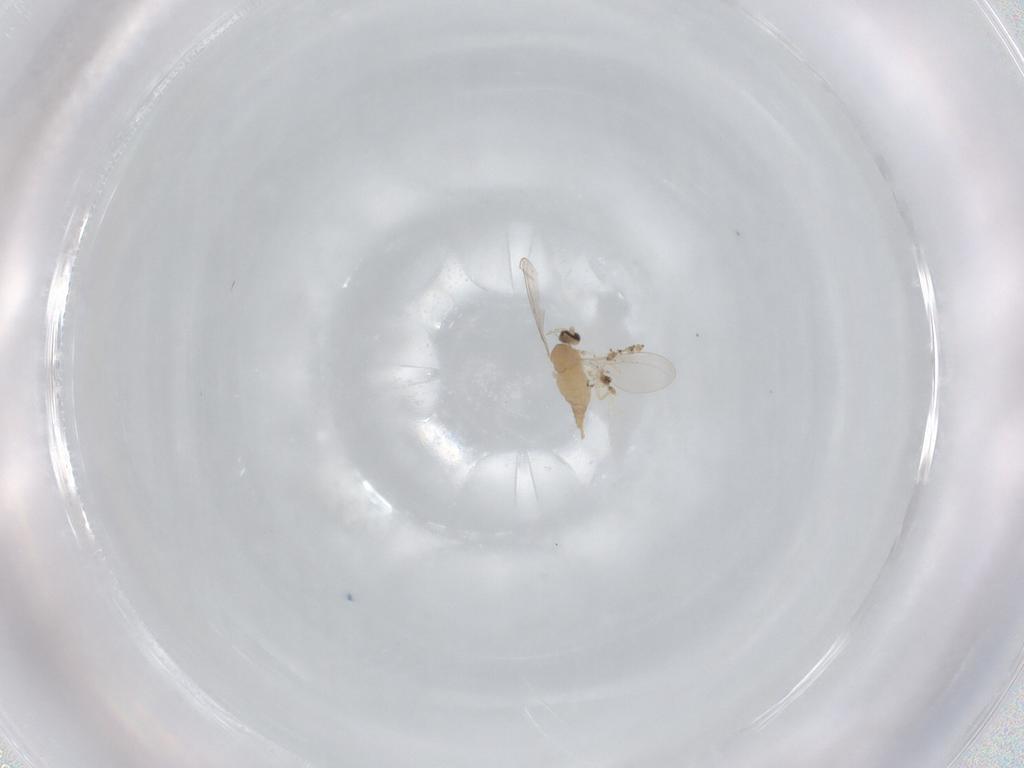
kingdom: Animalia
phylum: Arthropoda
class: Insecta
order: Diptera
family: Cecidomyiidae
